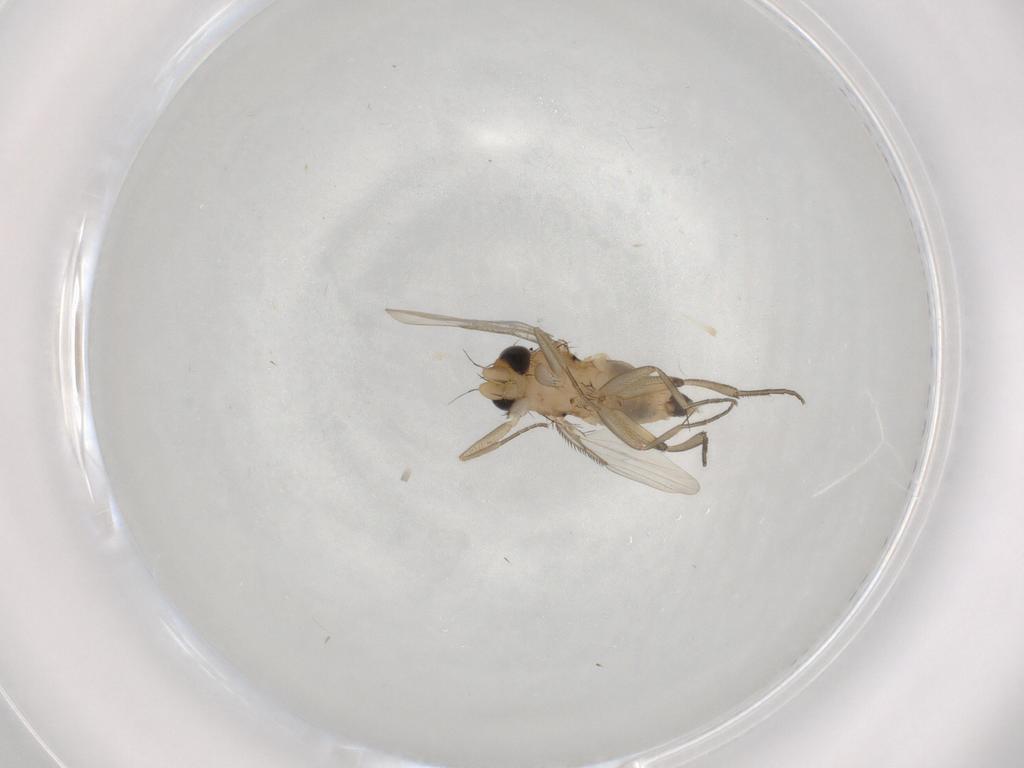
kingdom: Animalia
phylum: Arthropoda
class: Insecta
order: Diptera
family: Phoridae
